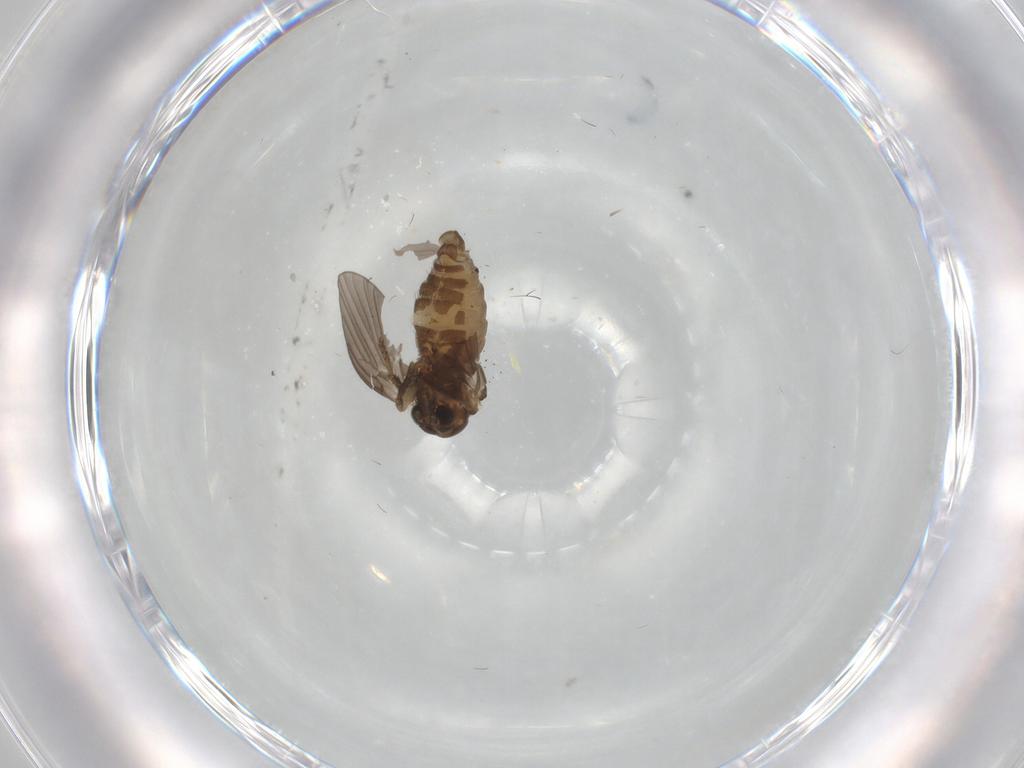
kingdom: Animalia
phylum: Arthropoda
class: Insecta
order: Diptera
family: Psychodidae
